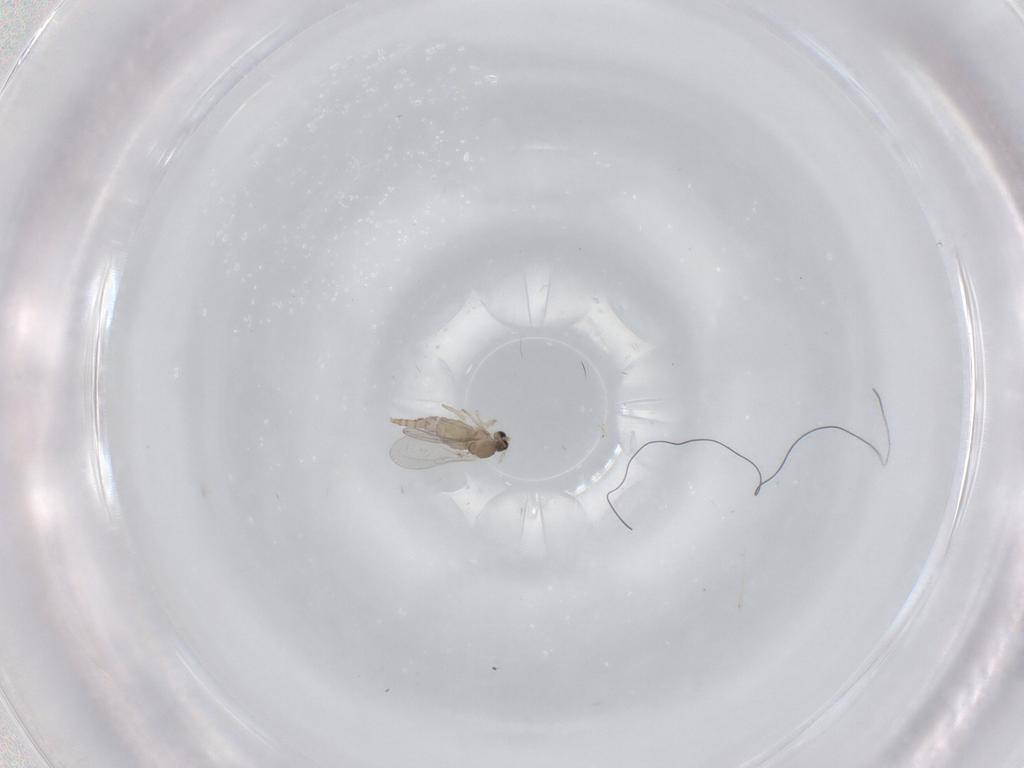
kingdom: Animalia
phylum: Arthropoda
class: Insecta
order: Diptera
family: Cecidomyiidae
